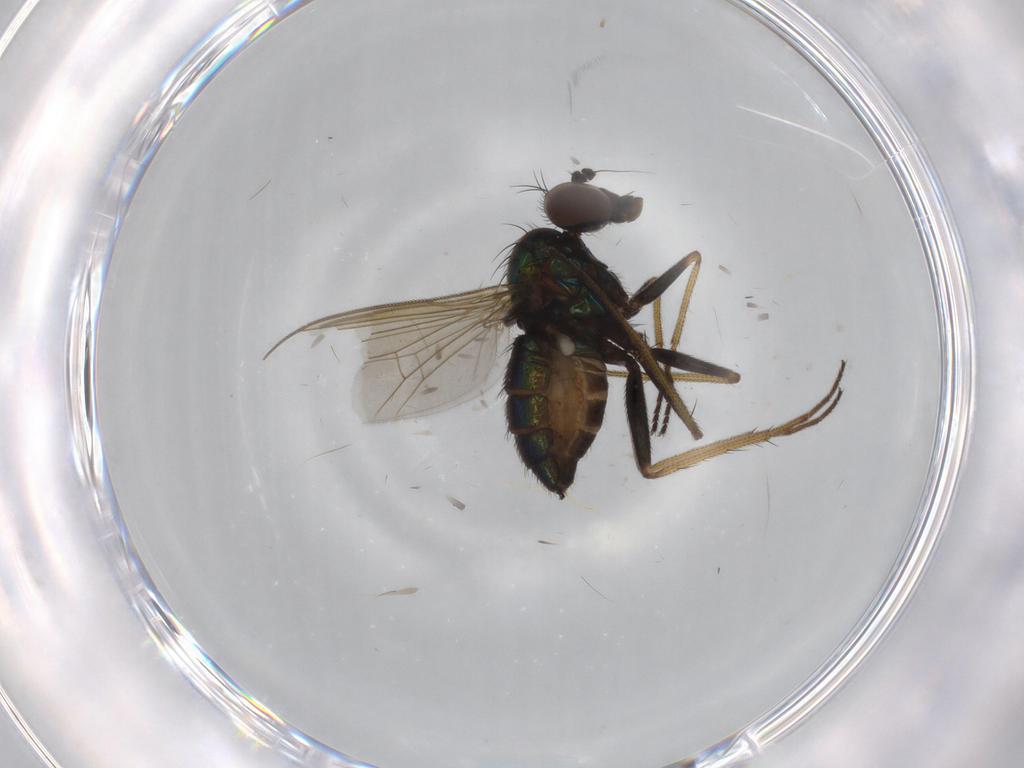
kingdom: Animalia
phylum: Arthropoda
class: Insecta
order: Diptera
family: Dolichopodidae
